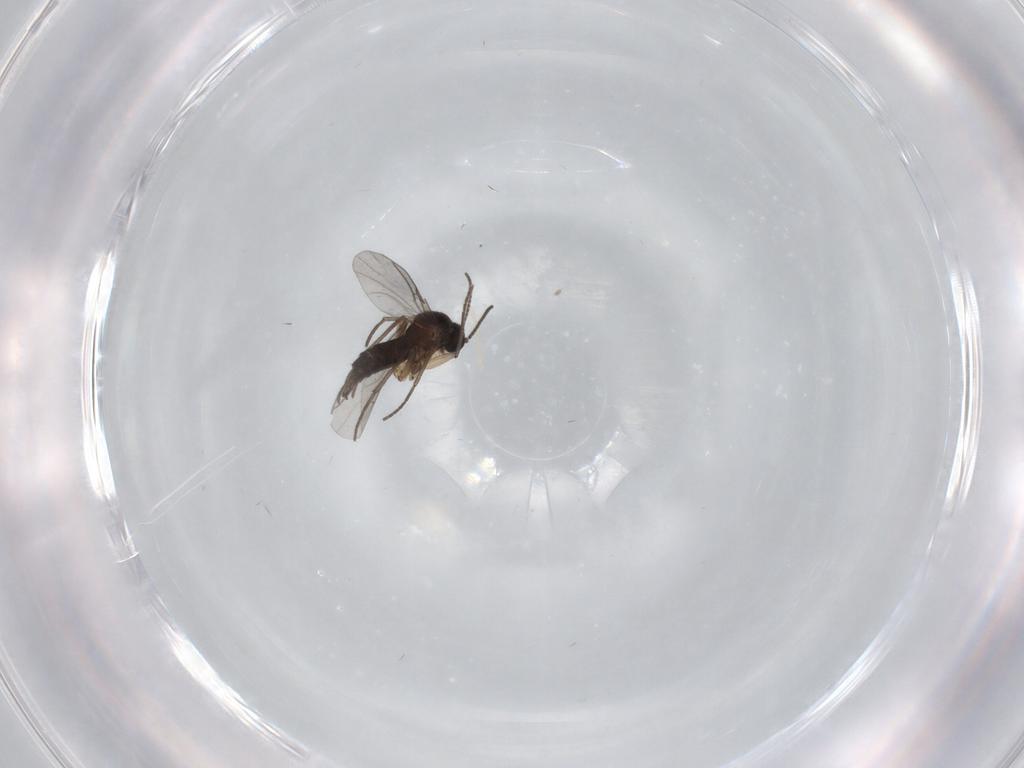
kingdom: Animalia
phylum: Arthropoda
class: Insecta
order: Diptera
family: Sciaridae
